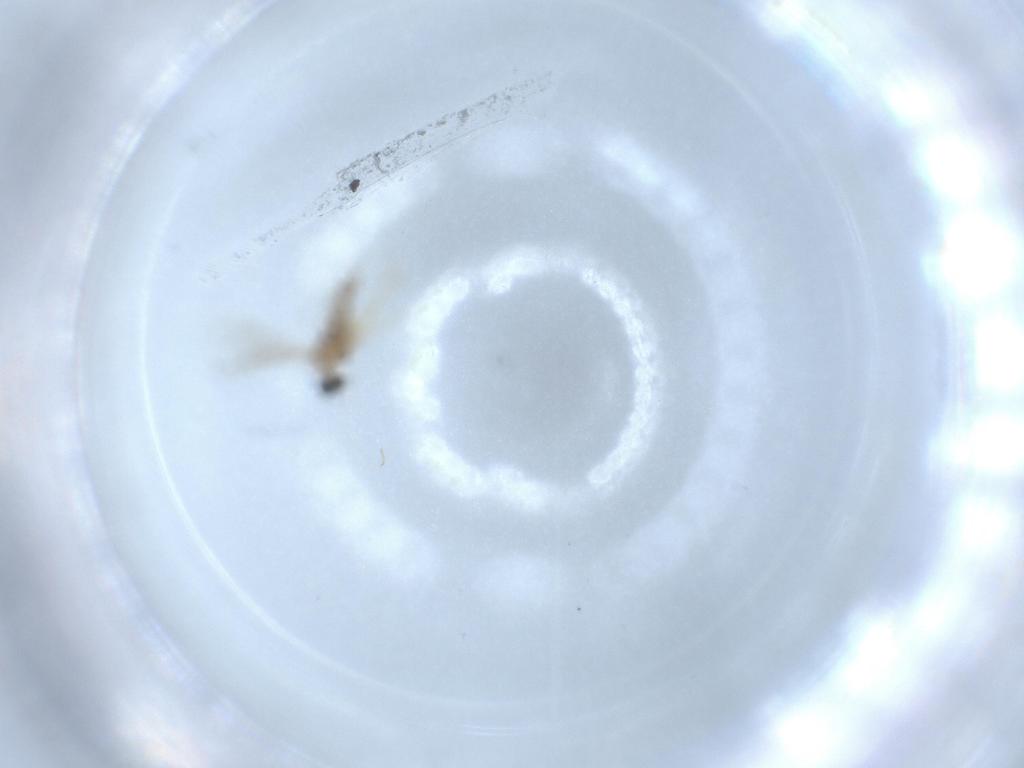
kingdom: Animalia
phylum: Arthropoda
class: Insecta
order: Diptera
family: Cecidomyiidae
